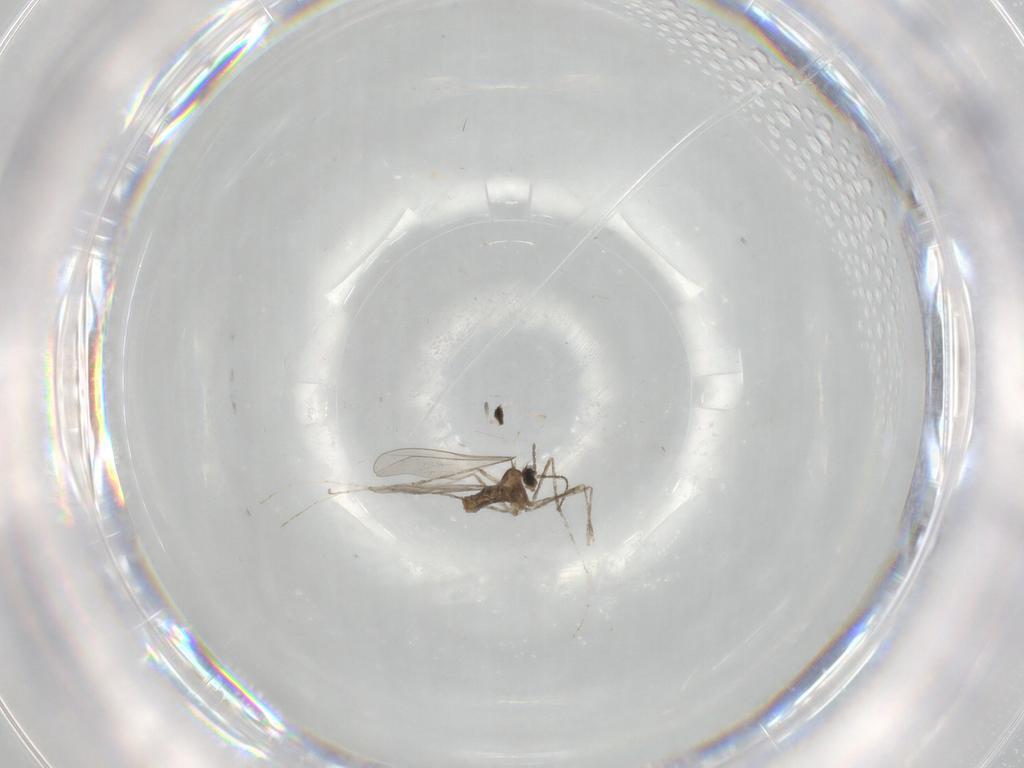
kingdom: Animalia
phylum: Arthropoda
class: Insecta
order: Diptera
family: Cecidomyiidae
